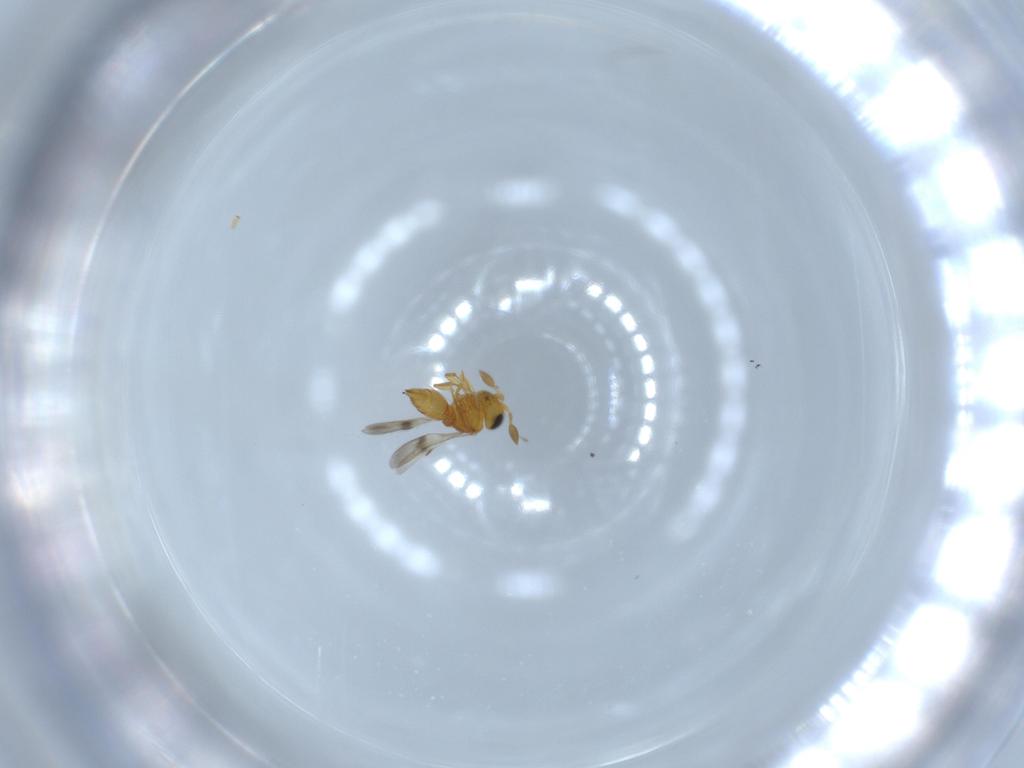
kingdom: Animalia
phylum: Arthropoda
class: Insecta
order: Hymenoptera
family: Scelionidae
